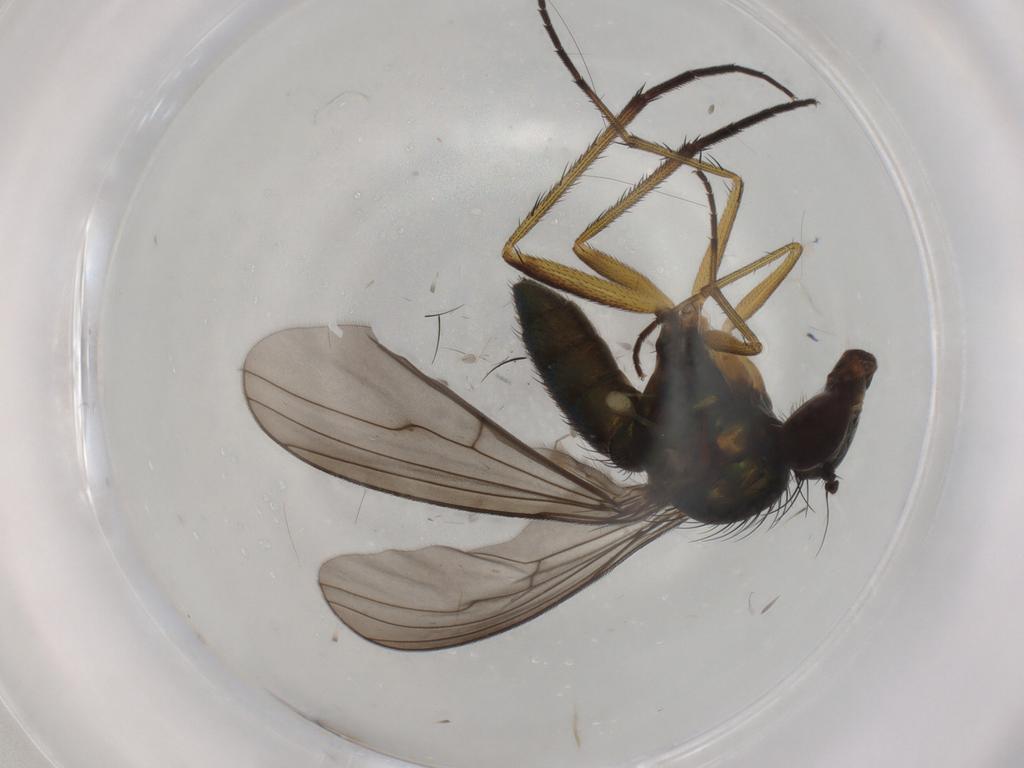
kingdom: Animalia
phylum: Arthropoda
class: Insecta
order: Diptera
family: Dolichopodidae
